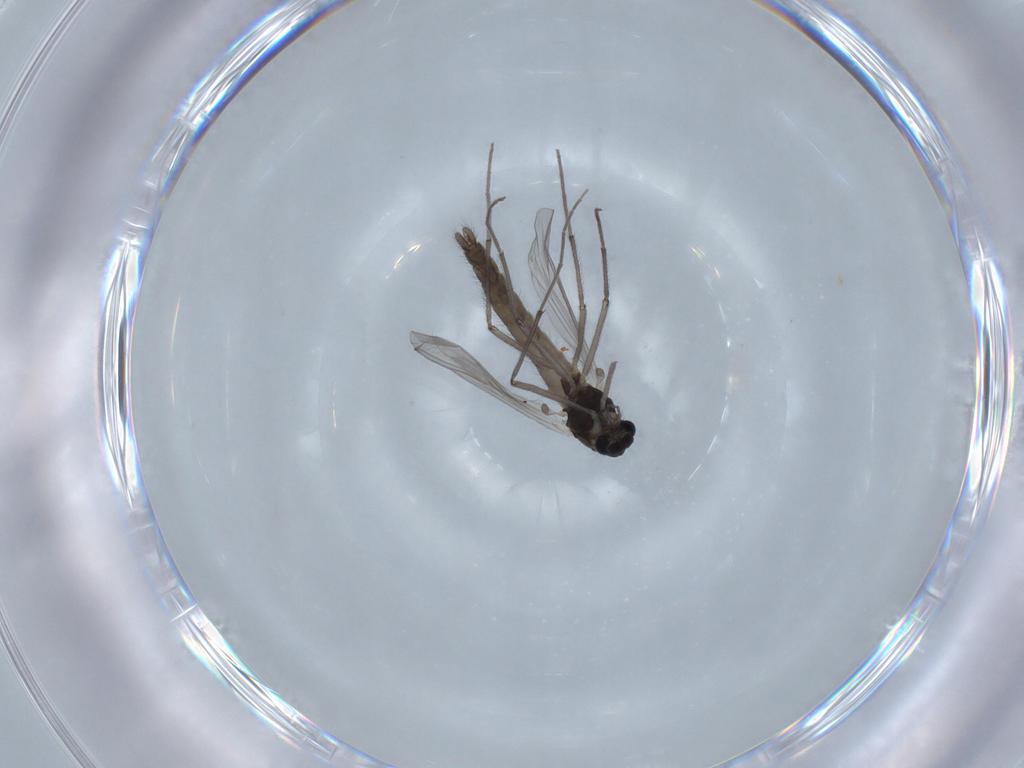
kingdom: Animalia
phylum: Arthropoda
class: Insecta
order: Diptera
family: Chironomidae
